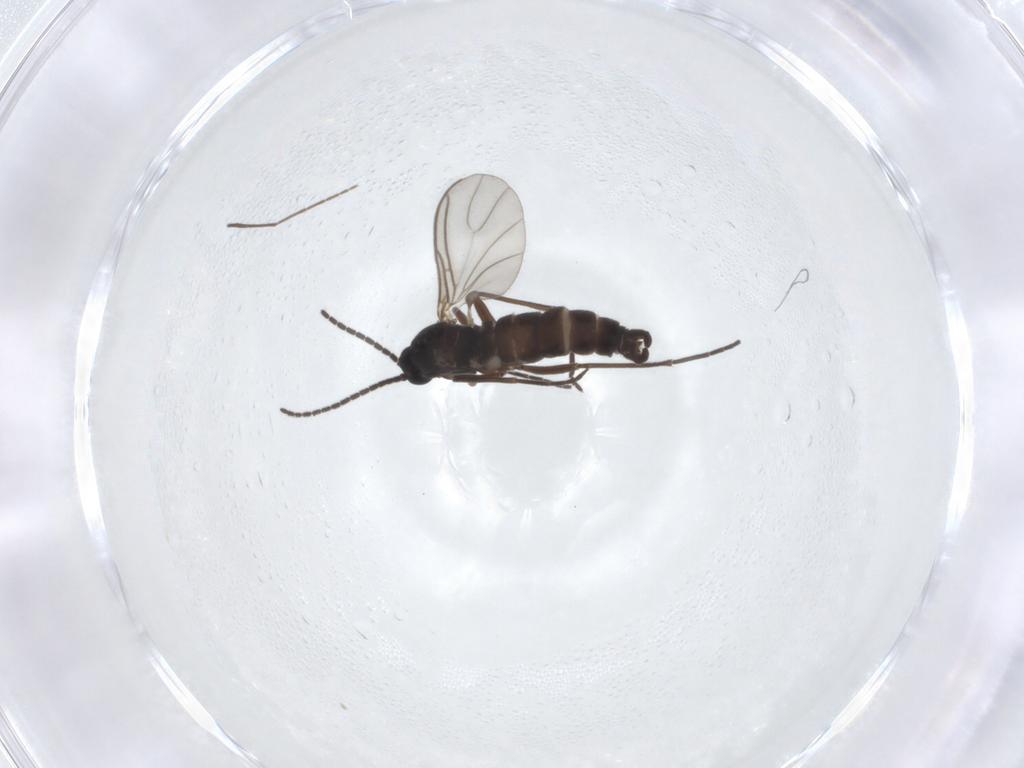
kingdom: Animalia
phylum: Arthropoda
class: Insecta
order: Diptera
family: Sciaridae
